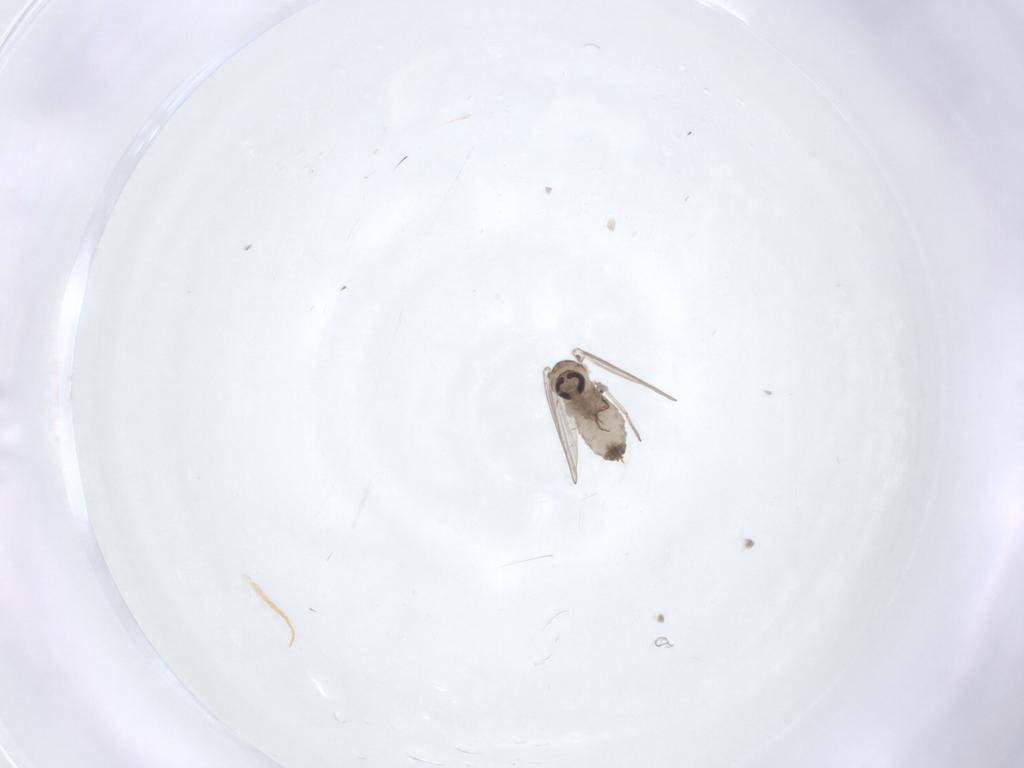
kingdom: Animalia
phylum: Arthropoda
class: Insecta
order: Diptera
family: Psychodidae
